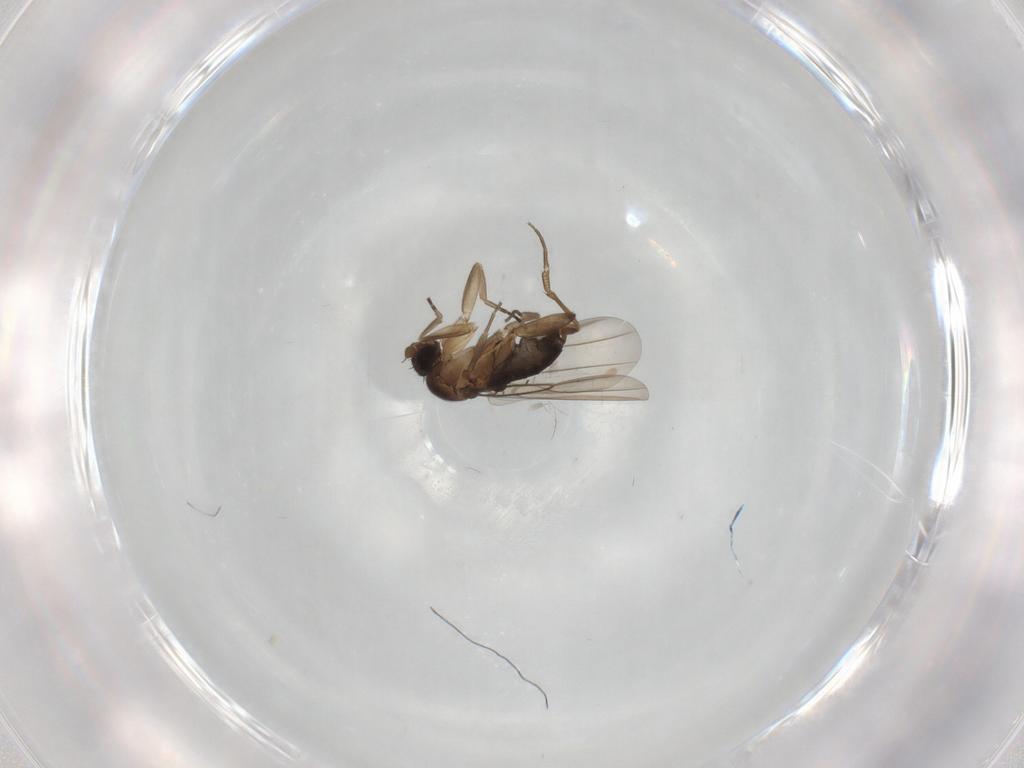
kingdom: Animalia
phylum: Arthropoda
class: Insecta
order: Diptera
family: Phoridae
